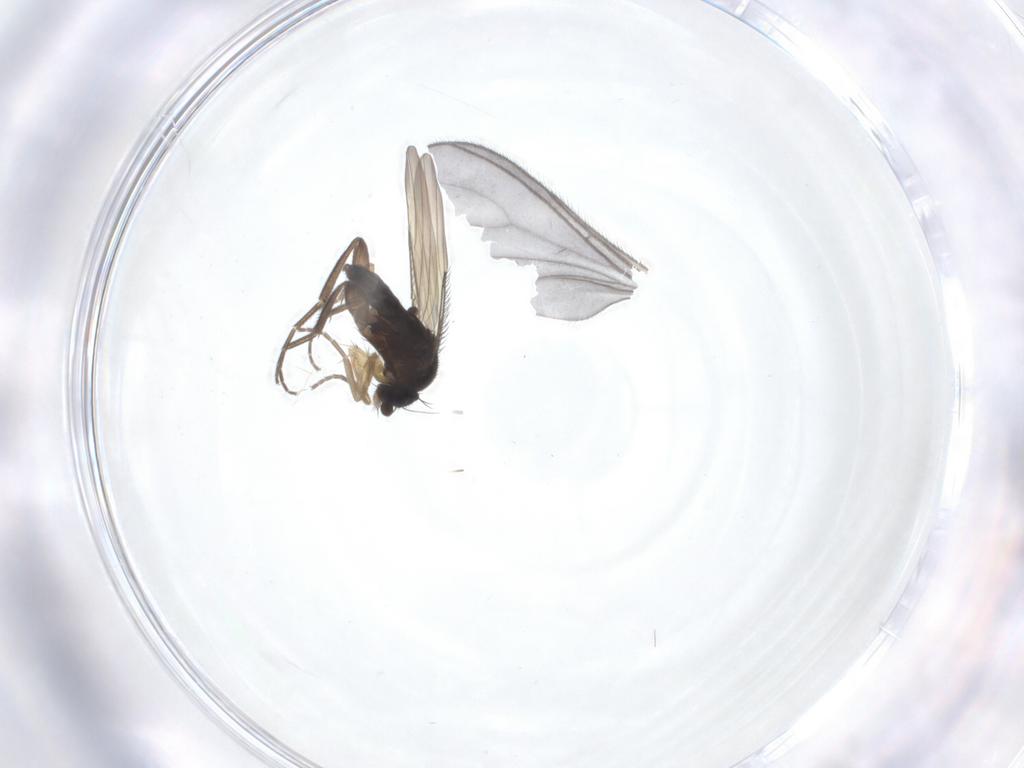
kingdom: Animalia
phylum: Arthropoda
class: Insecta
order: Diptera
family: Phoridae
